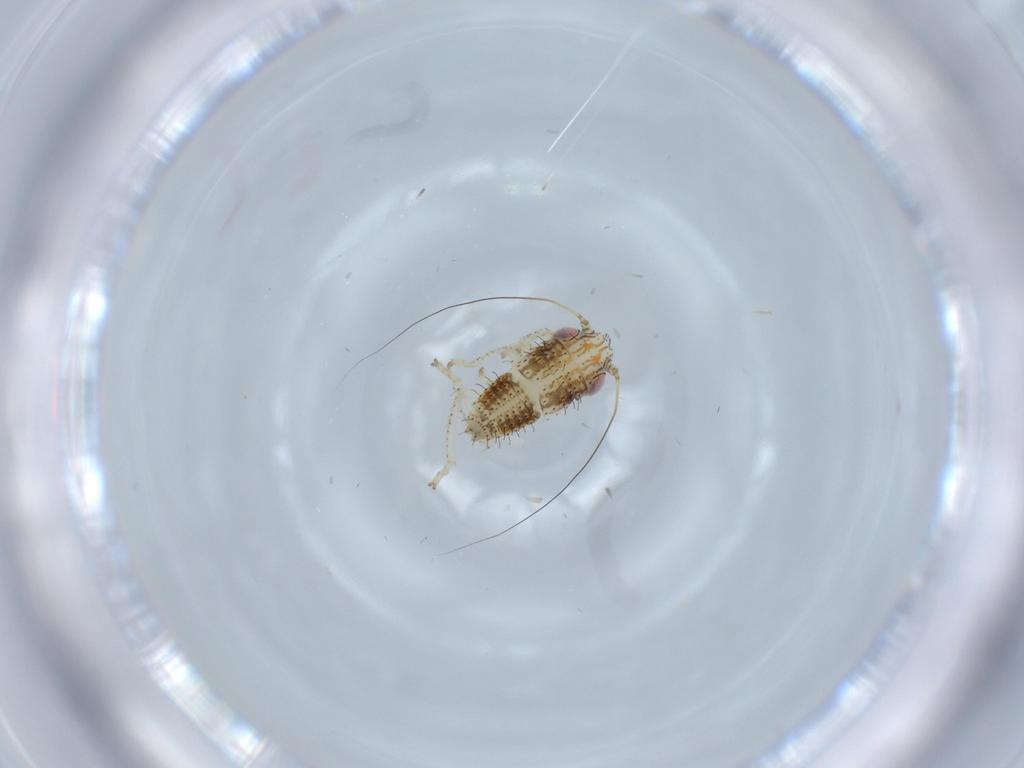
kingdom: Animalia
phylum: Arthropoda
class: Insecta
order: Hemiptera
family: Cicadellidae
